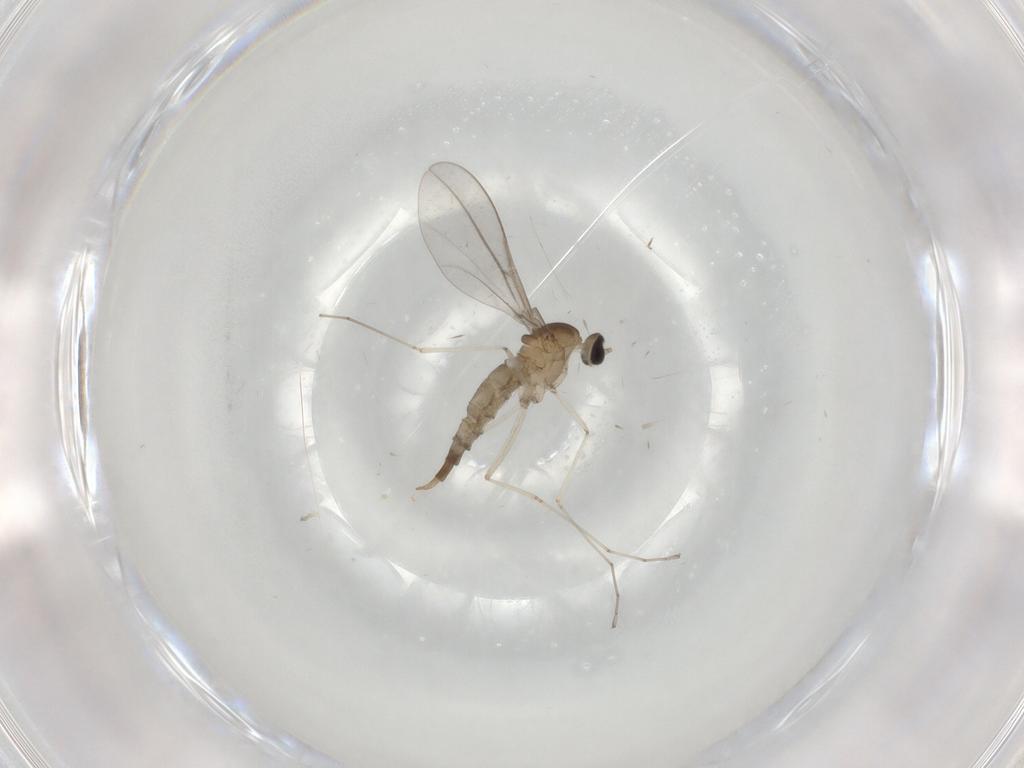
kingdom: Animalia
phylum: Arthropoda
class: Insecta
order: Diptera
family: Cecidomyiidae
